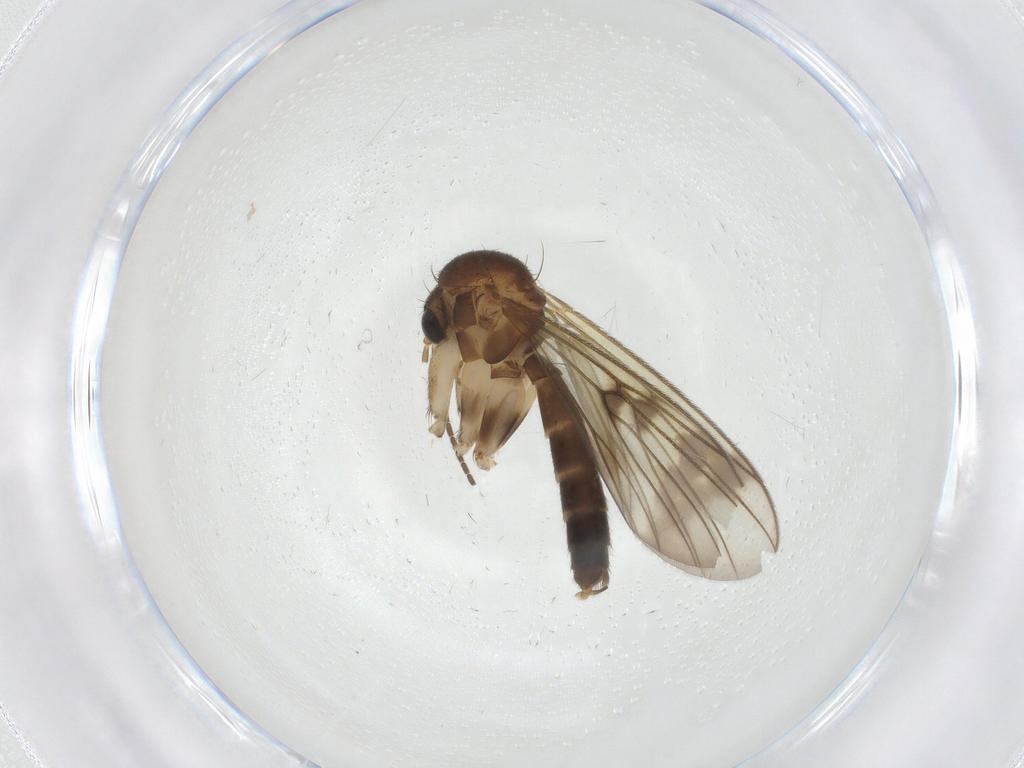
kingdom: Animalia
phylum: Arthropoda
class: Insecta
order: Diptera
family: Mycetophilidae
